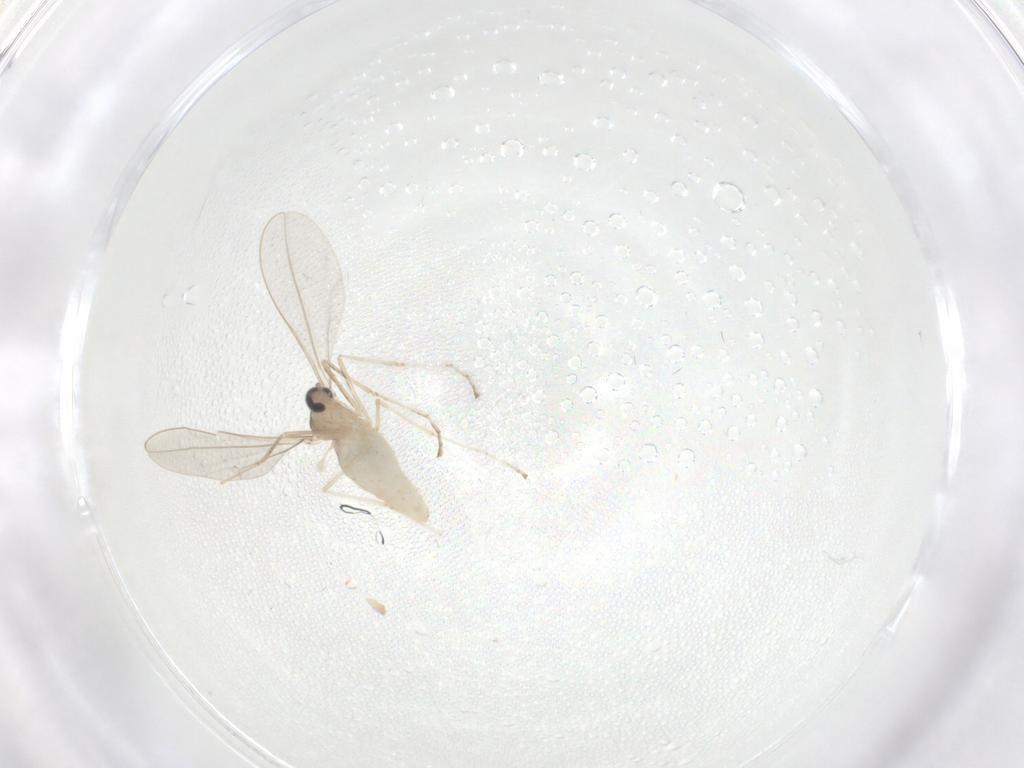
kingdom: Animalia
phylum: Arthropoda
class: Insecta
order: Diptera
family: Cecidomyiidae
